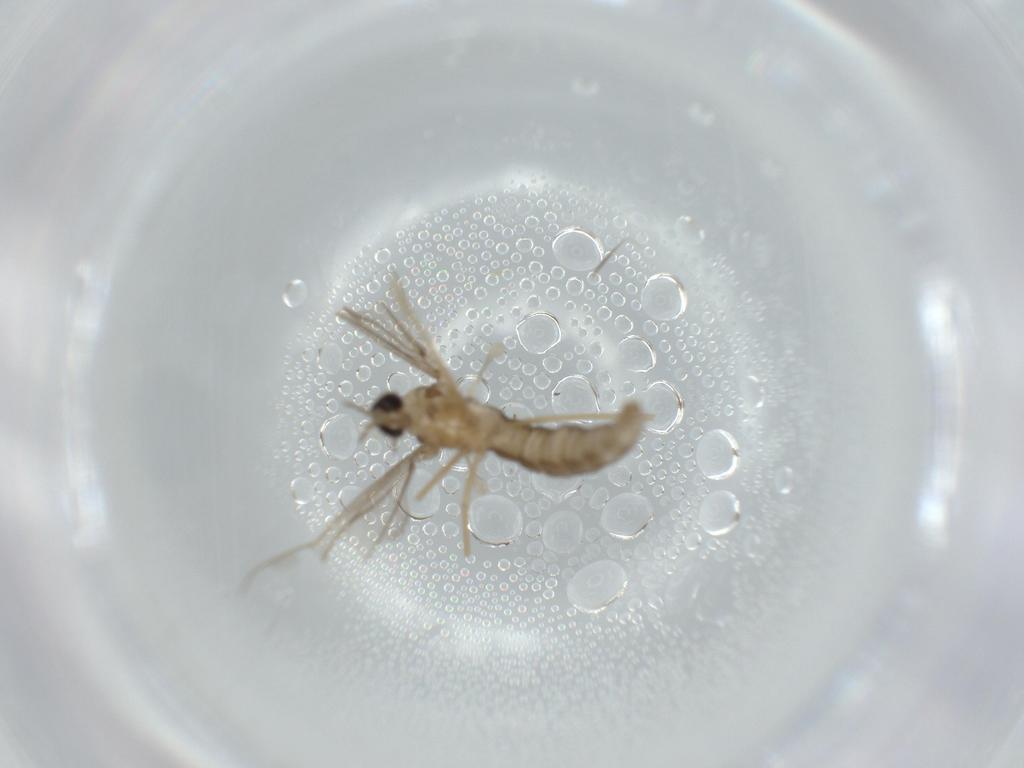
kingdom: Animalia
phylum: Arthropoda
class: Insecta
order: Diptera
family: Cecidomyiidae
